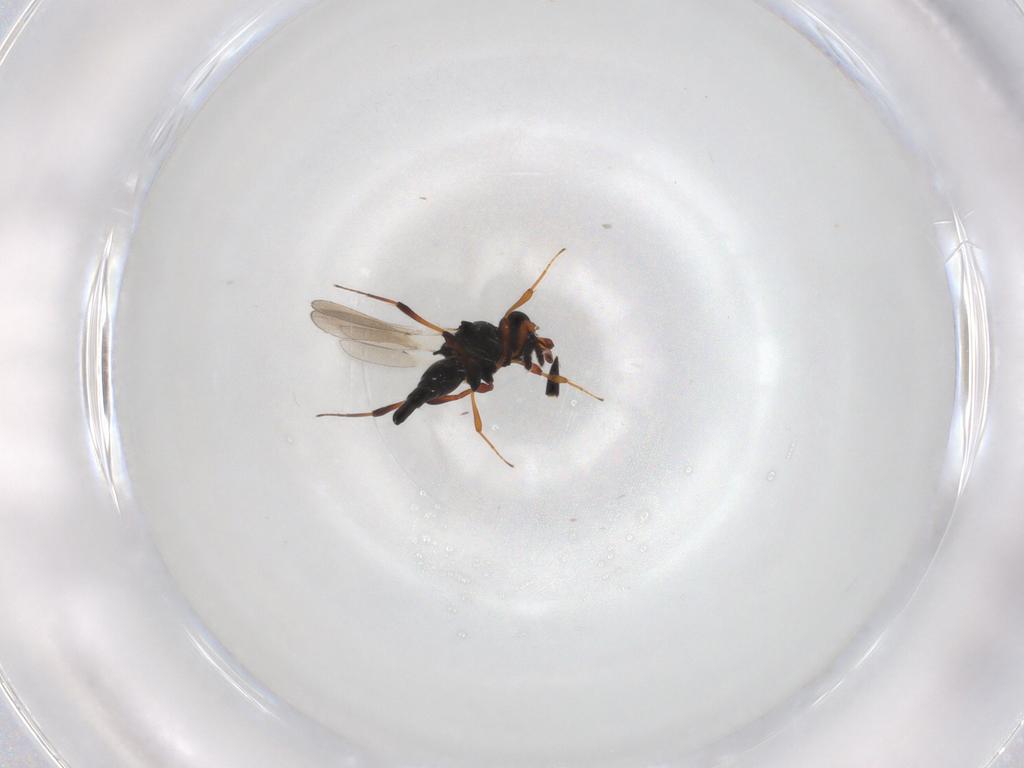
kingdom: Animalia
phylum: Arthropoda
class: Insecta
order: Hymenoptera
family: Platygastridae
